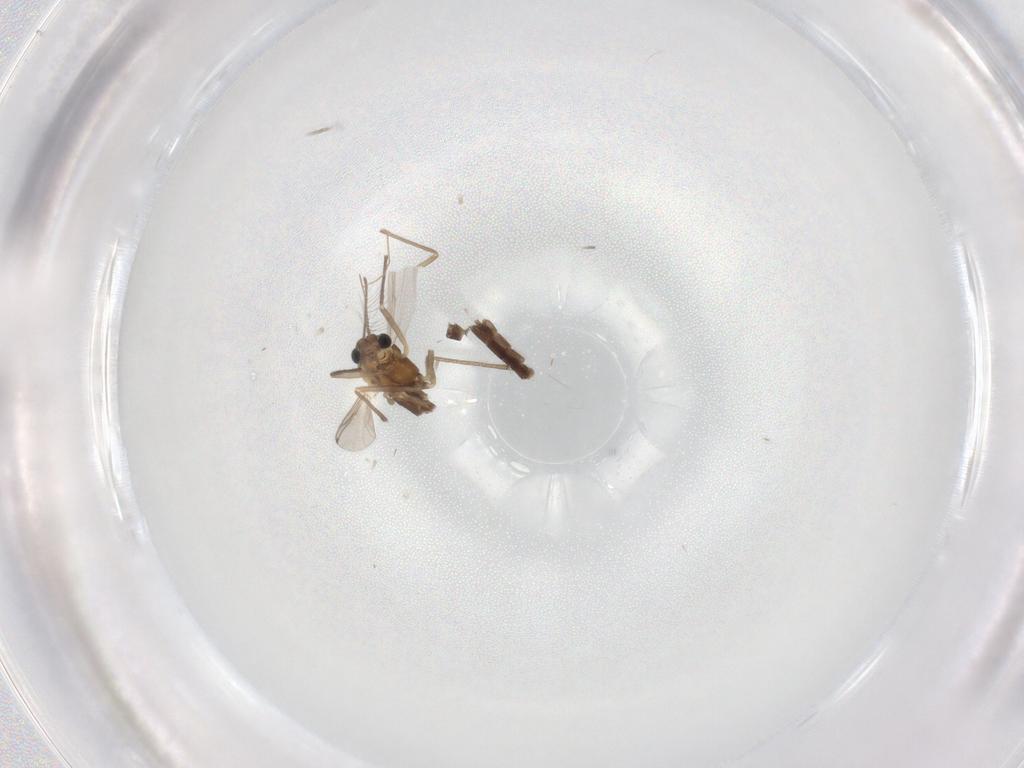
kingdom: Animalia
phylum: Arthropoda
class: Insecta
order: Diptera
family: Chironomidae
